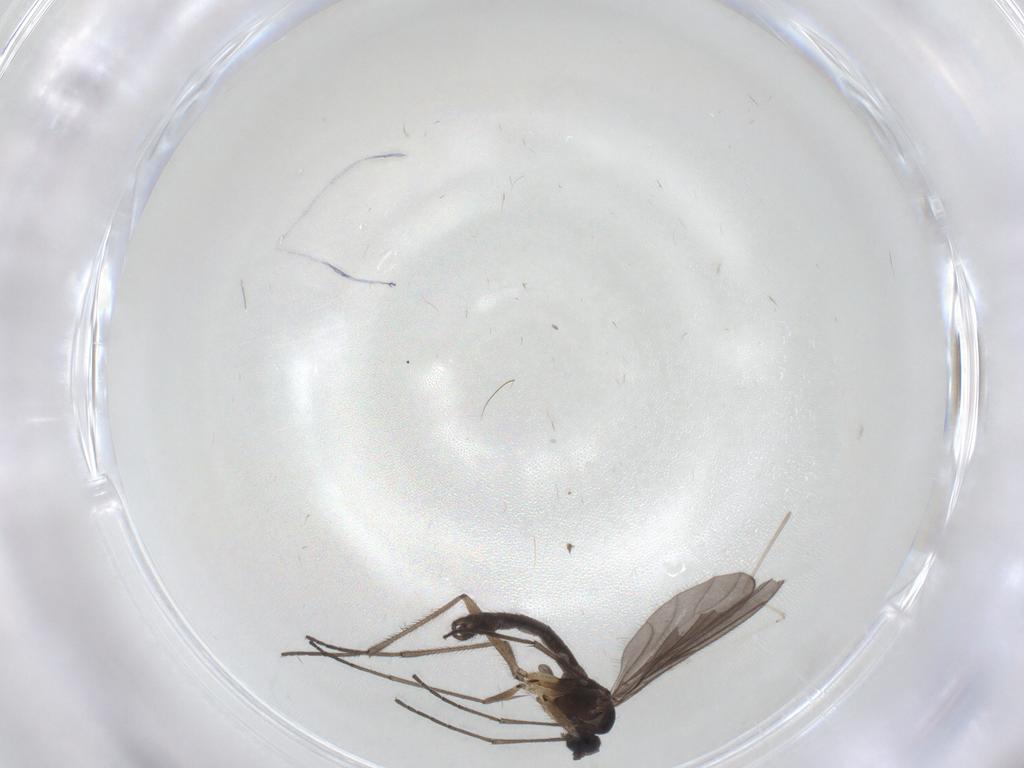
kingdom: Animalia
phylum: Arthropoda
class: Insecta
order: Diptera
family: Sciaridae
